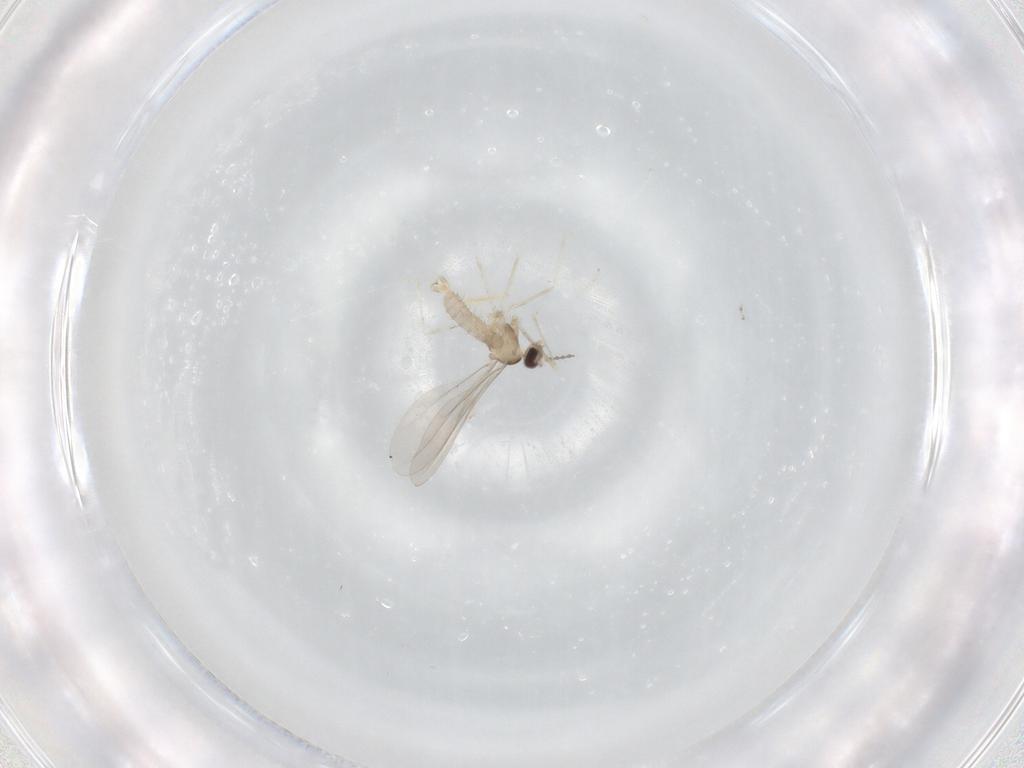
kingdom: Animalia
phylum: Arthropoda
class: Insecta
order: Diptera
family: Cecidomyiidae
